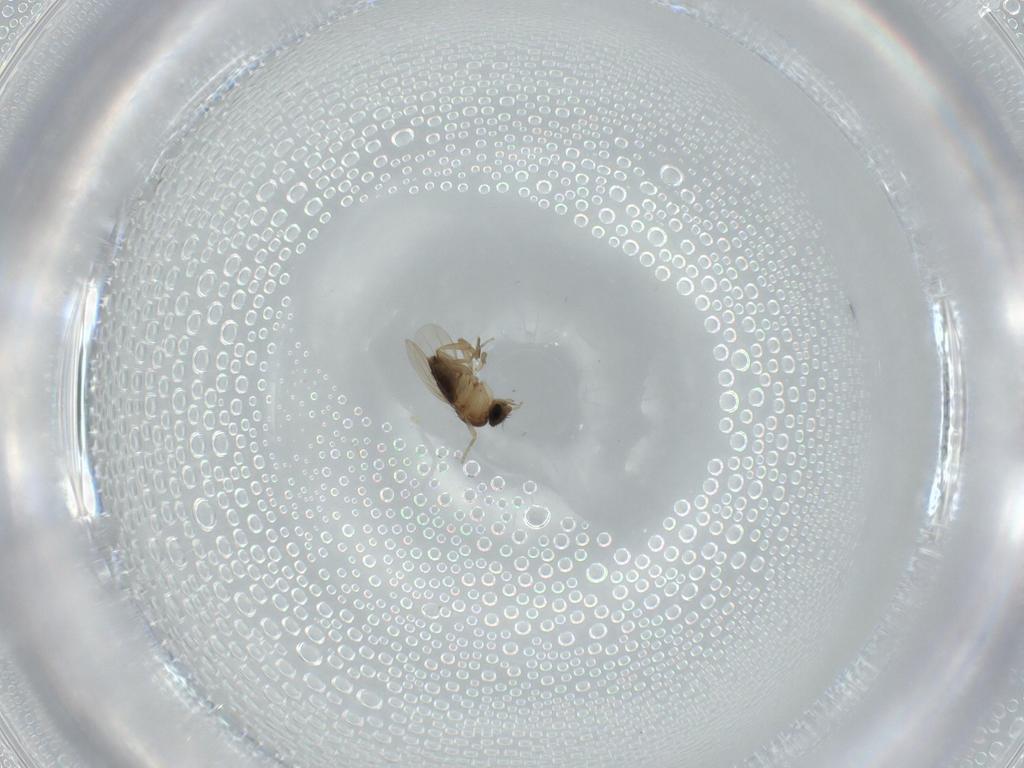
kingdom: Animalia
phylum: Arthropoda
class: Insecta
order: Diptera
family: Phoridae
